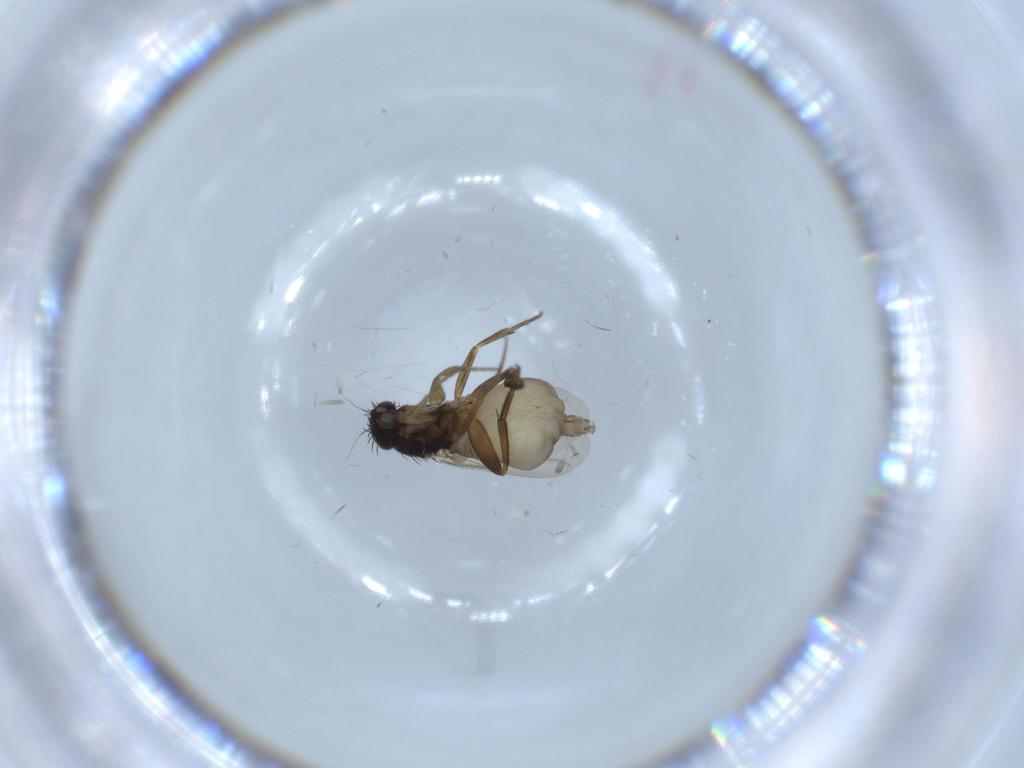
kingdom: Animalia
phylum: Arthropoda
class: Insecta
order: Diptera
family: Phoridae
